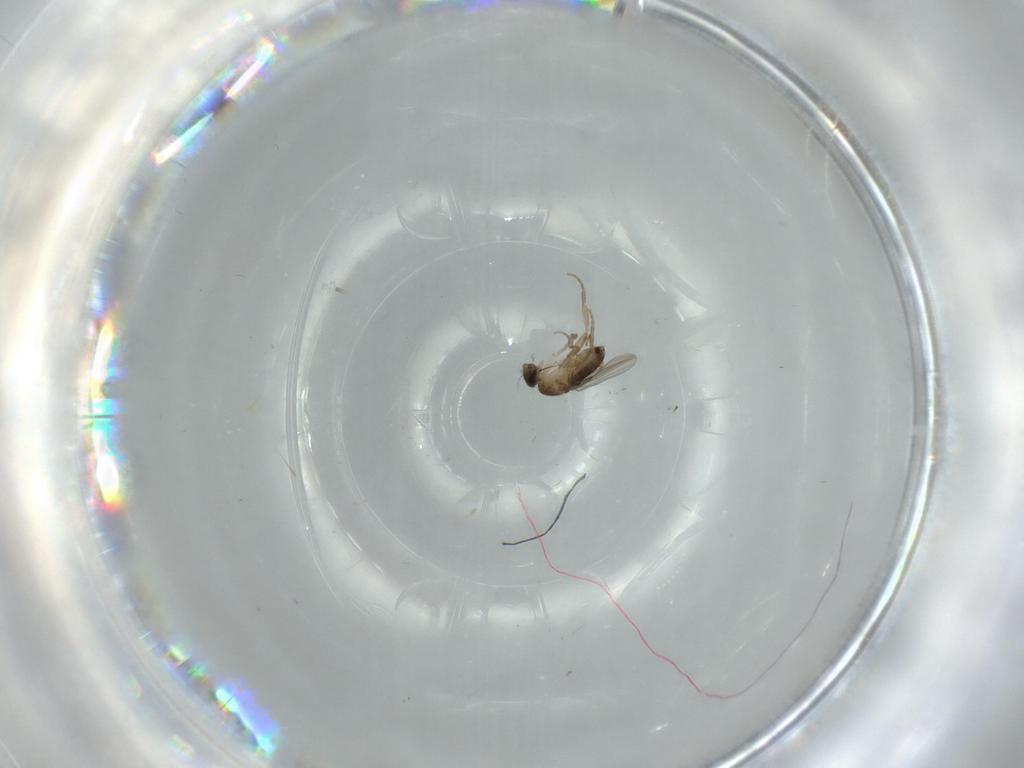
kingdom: Animalia
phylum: Arthropoda
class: Insecta
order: Diptera
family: Phoridae
